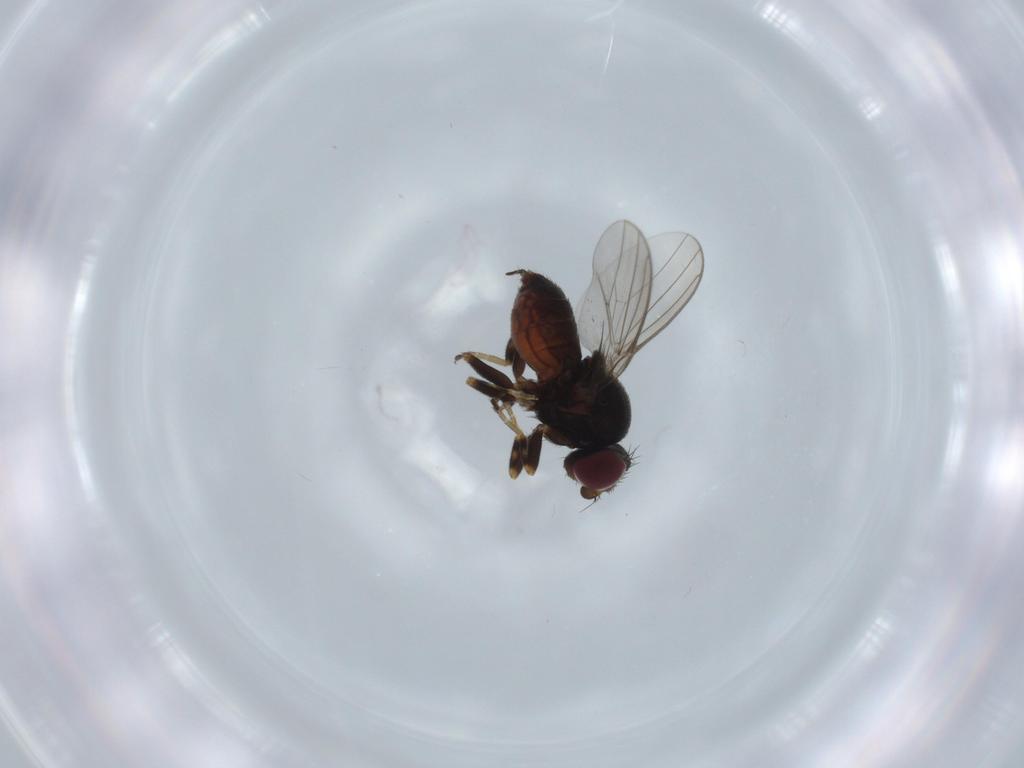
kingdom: Animalia
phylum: Arthropoda
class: Insecta
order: Diptera
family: Chloropidae
